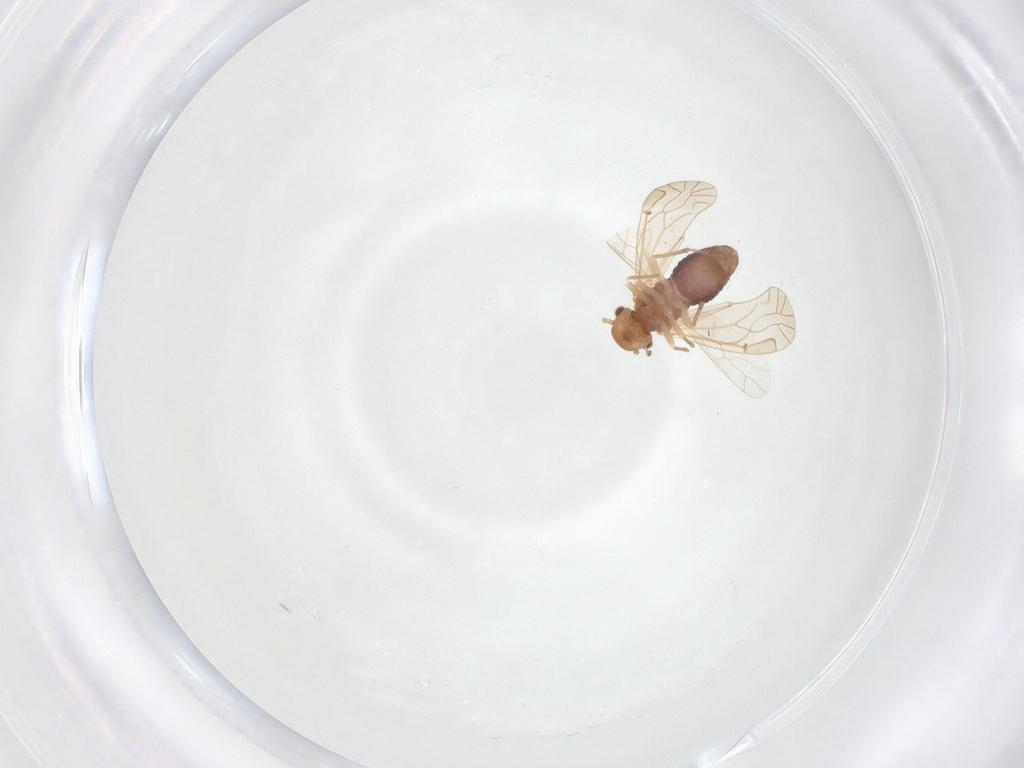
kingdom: Animalia
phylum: Arthropoda
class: Insecta
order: Psocodea
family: Lachesillidae
